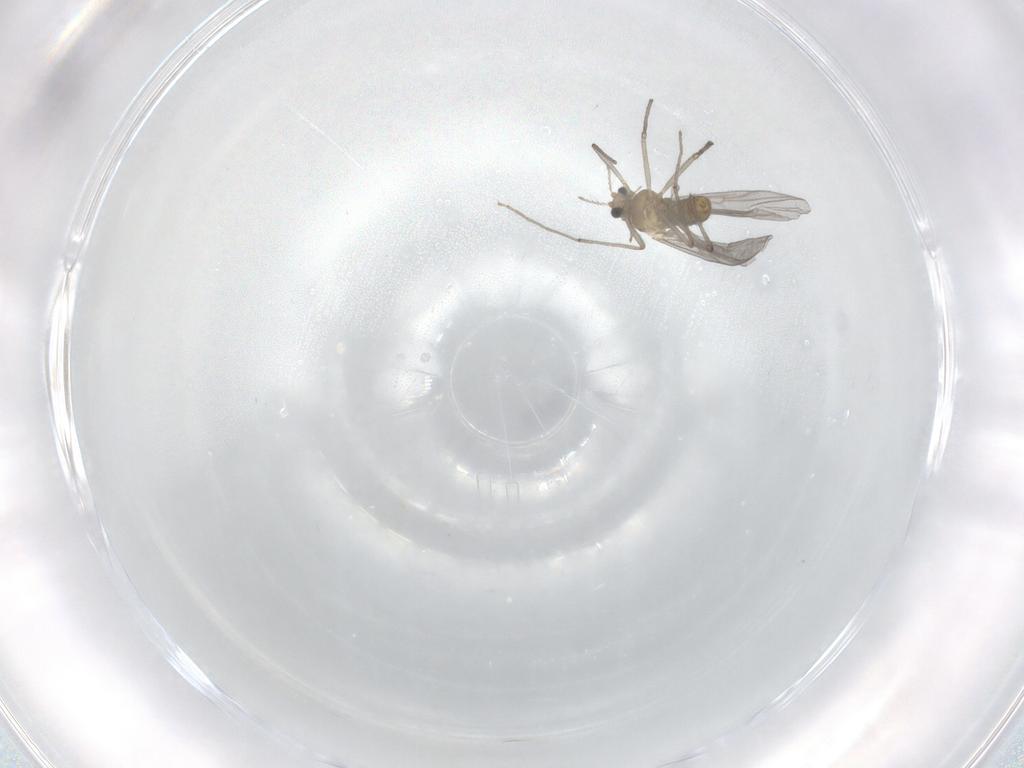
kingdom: Animalia
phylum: Arthropoda
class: Insecta
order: Diptera
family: Chironomidae
